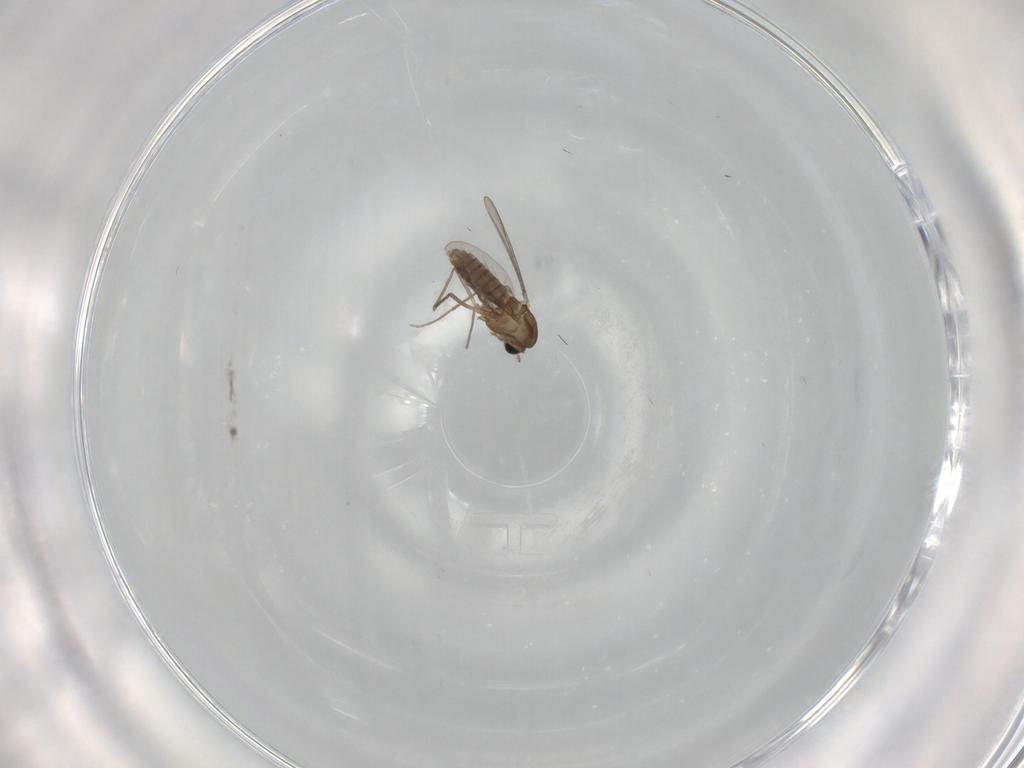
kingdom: Animalia
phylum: Arthropoda
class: Insecta
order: Diptera
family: Chironomidae
